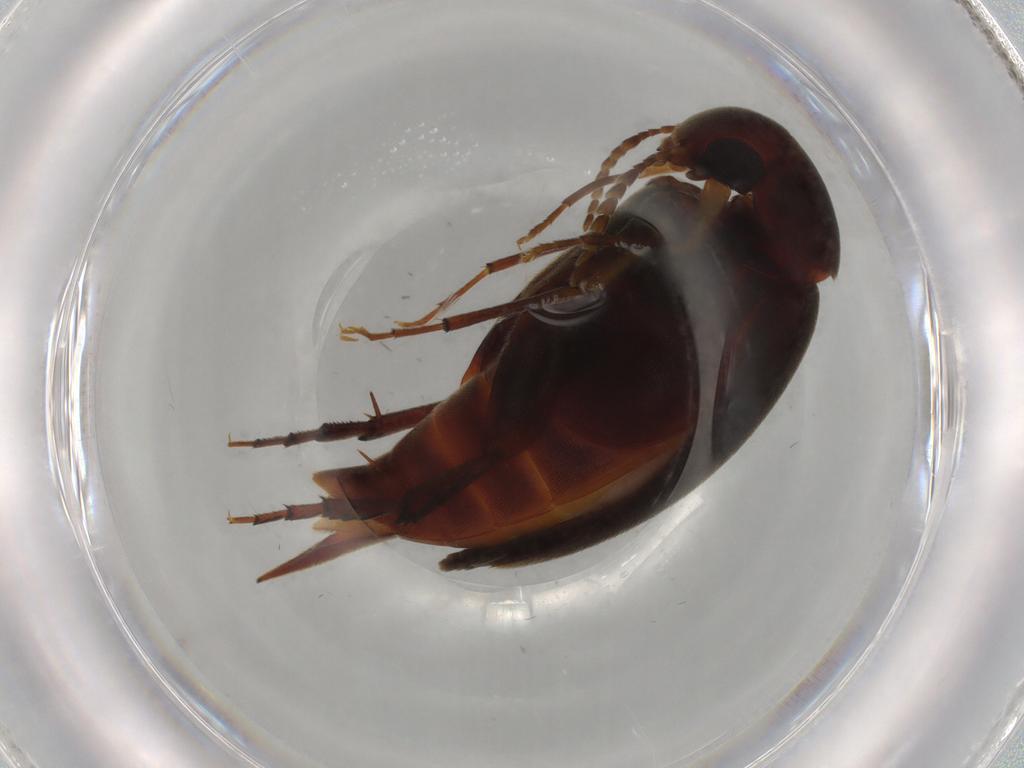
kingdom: Animalia
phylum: Arthropoda
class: Insecta
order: Coleoptera
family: Mordellidae
